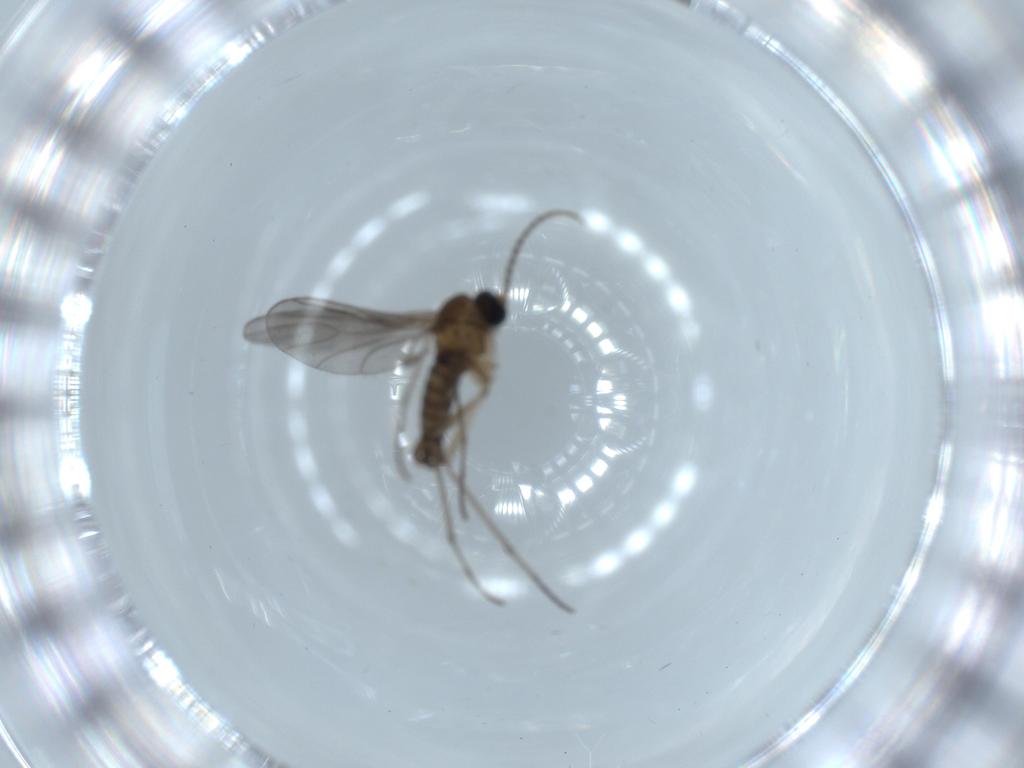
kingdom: Animalia
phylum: Arthropoda
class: Insecta
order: Diptera
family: Sciaridae
